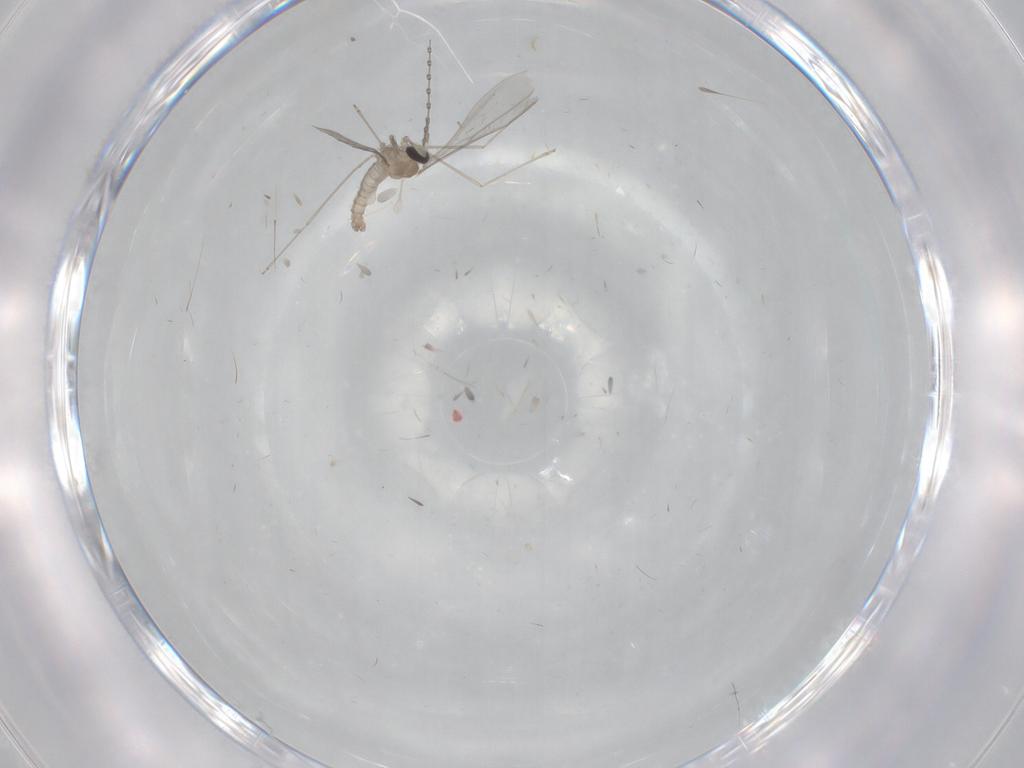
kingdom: Animalia
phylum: Arthropoda
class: Insecta
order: Diptera
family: Cecidomyiidae
